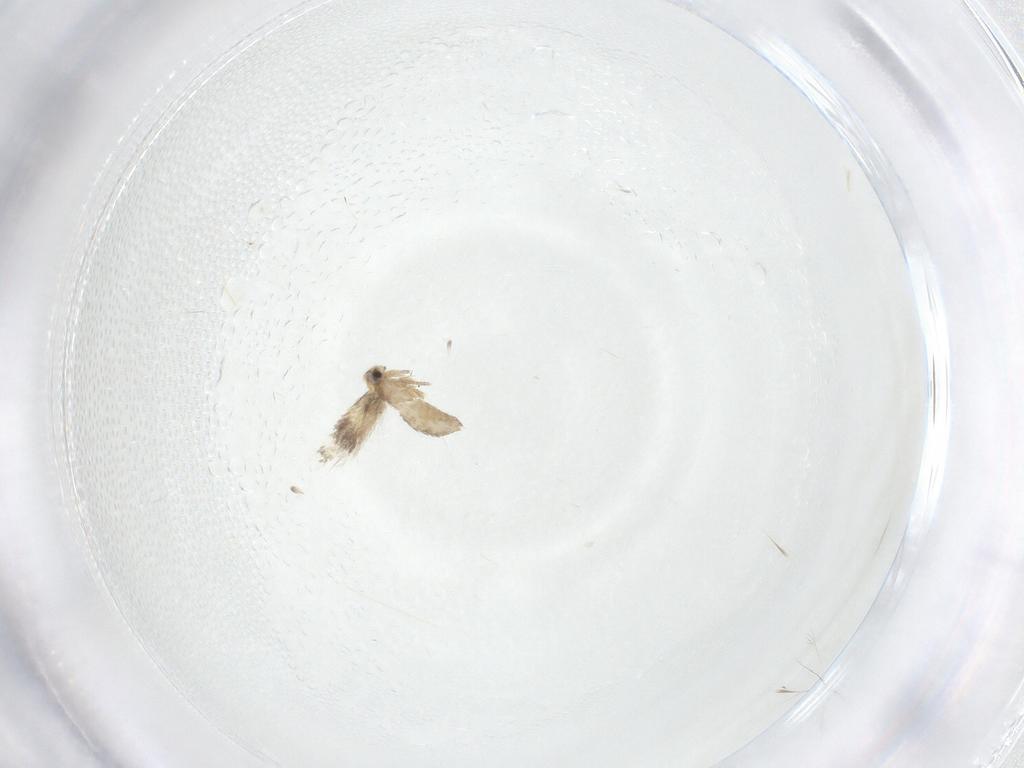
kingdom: Animalia
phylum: Arthropoda
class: Insecta
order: Lepidoptera
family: Nepticulidae
